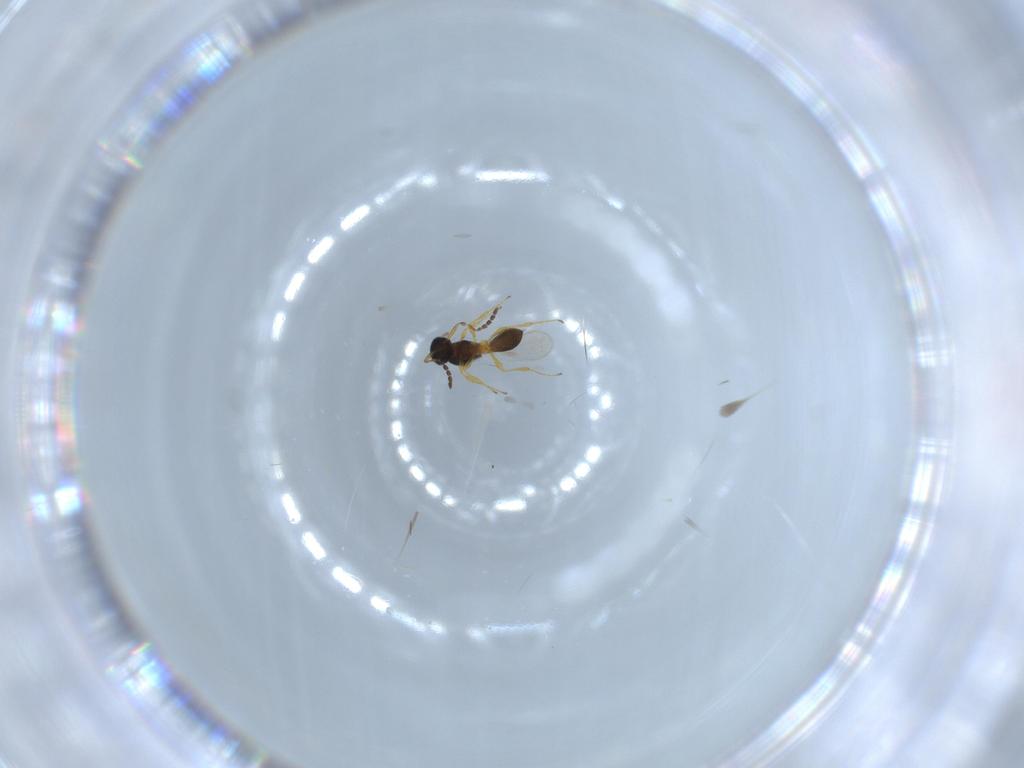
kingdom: Animalia
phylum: Arthropoda
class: Insecta
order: Hymenoptera
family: Platygastridae
